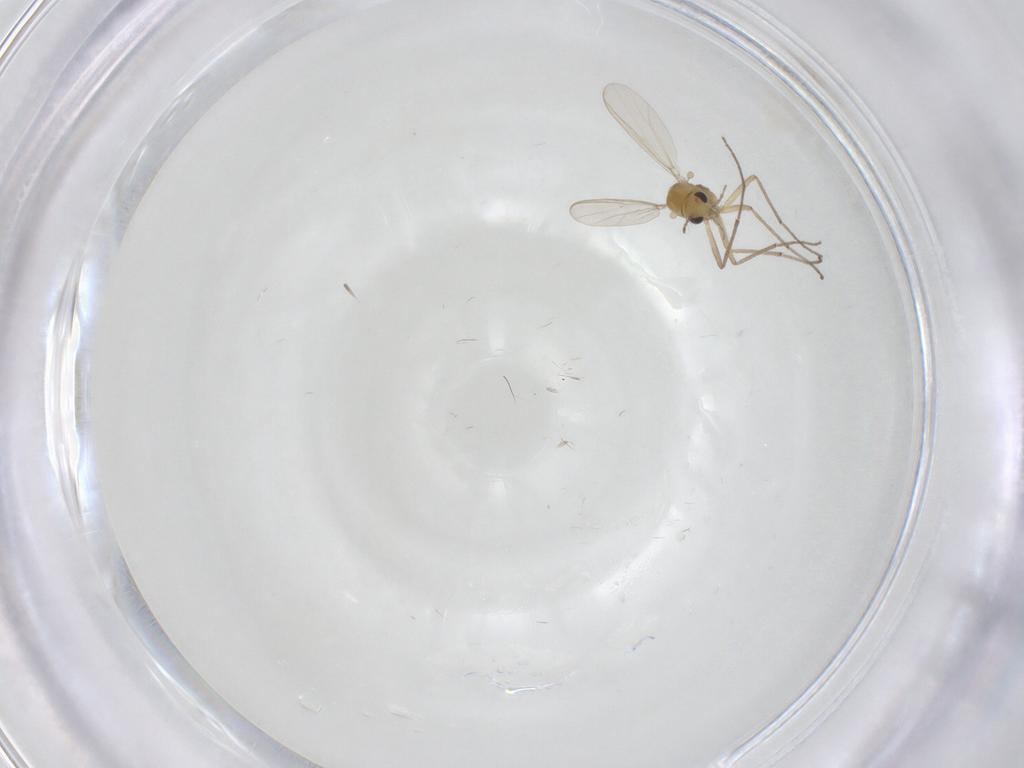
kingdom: Animalia
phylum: Arthropoda
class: Insecta
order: Diptera
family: Chironomidae
